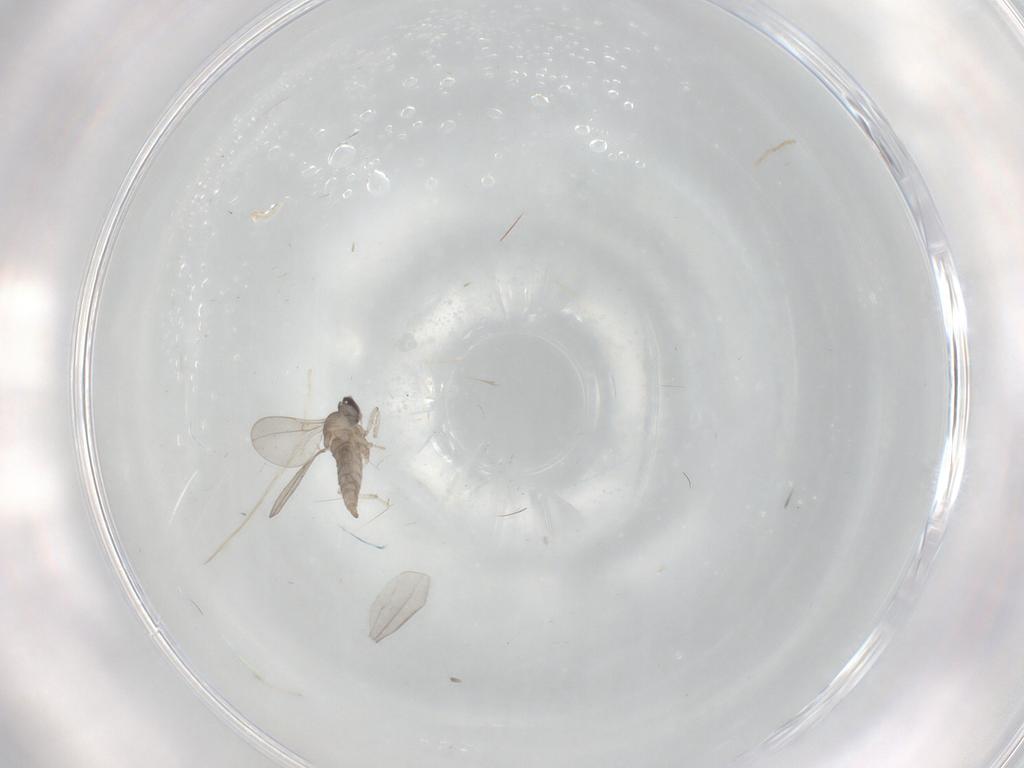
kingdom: Animalia
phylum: Arthropoda
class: Insecta
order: Diptera
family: Cecidomyiidae
